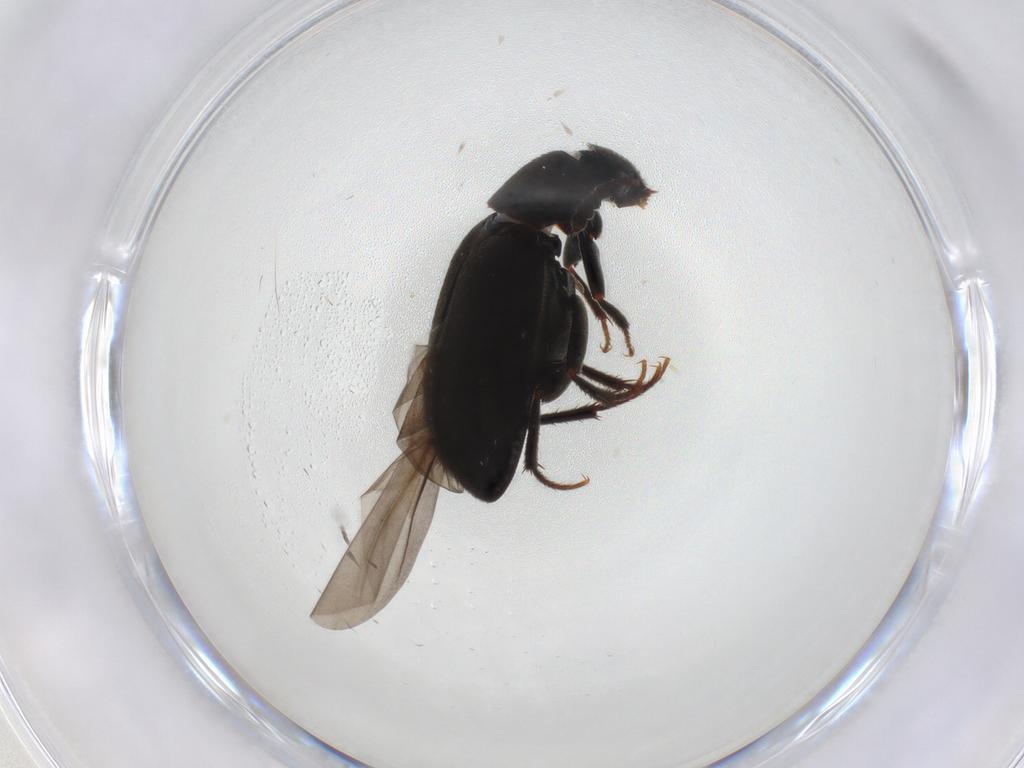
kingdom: Animalia
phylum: Arthropoda
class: Insecta
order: Coleoptera
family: Leiodidae
